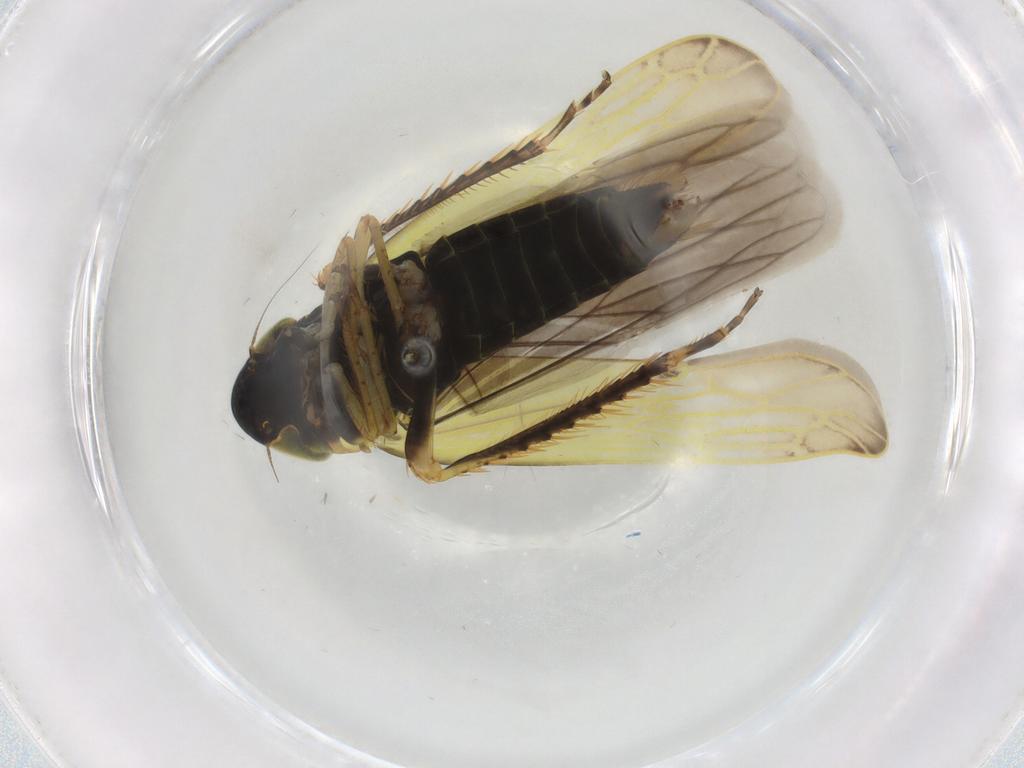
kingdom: Animalia
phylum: Arthropoda
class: Insecta
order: Hemiptera
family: Cicadellidae
